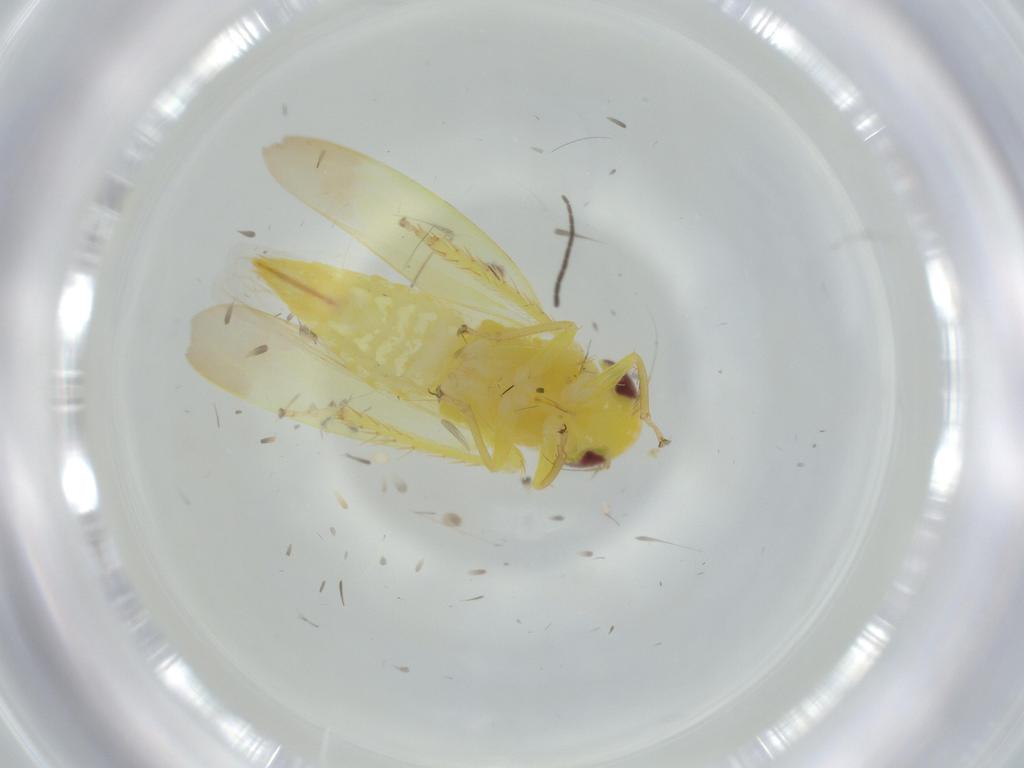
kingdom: Animalia
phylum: Arthropoda
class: Insecta
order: Hemiptera
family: Cicadellidae
